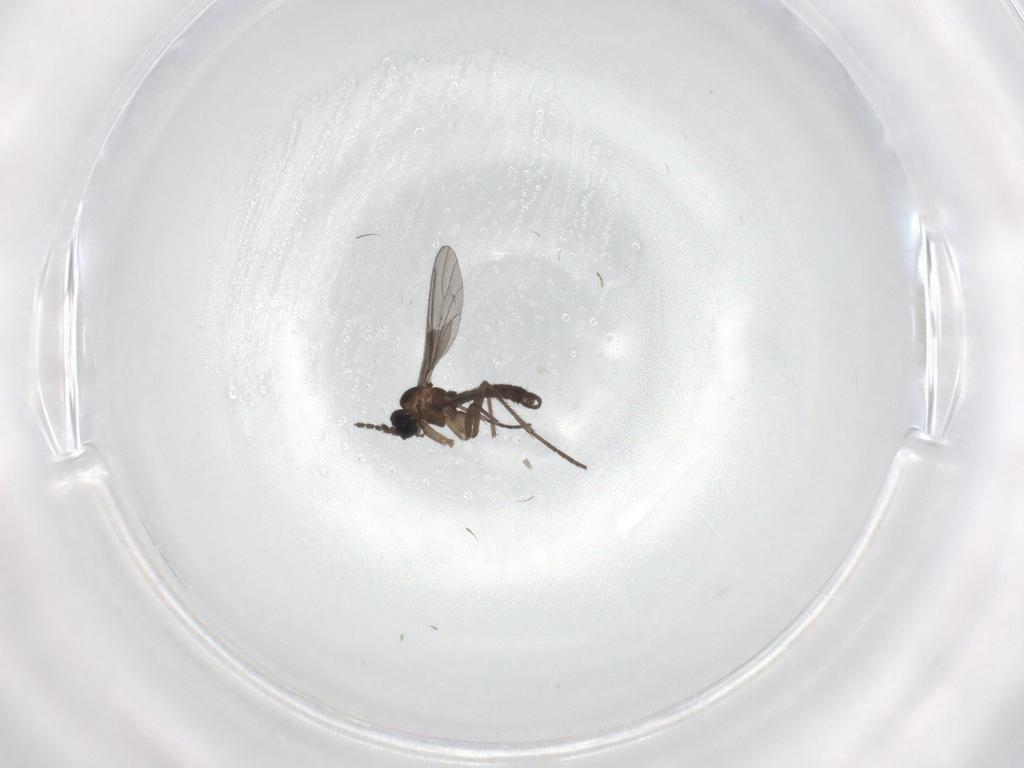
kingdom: Animalia
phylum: Arthropoda
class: Insecta
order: Diptera
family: Sciaridae
